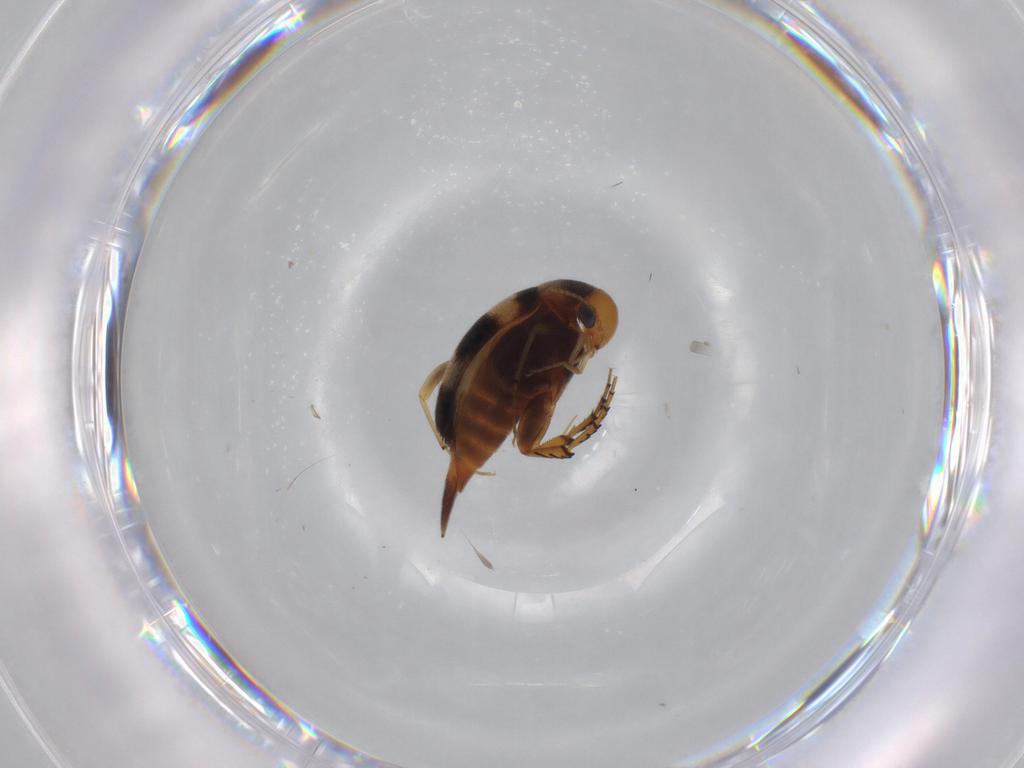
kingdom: Animalia
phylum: Arthropoda
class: Insecta
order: Coleoptera
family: Mordellidae
